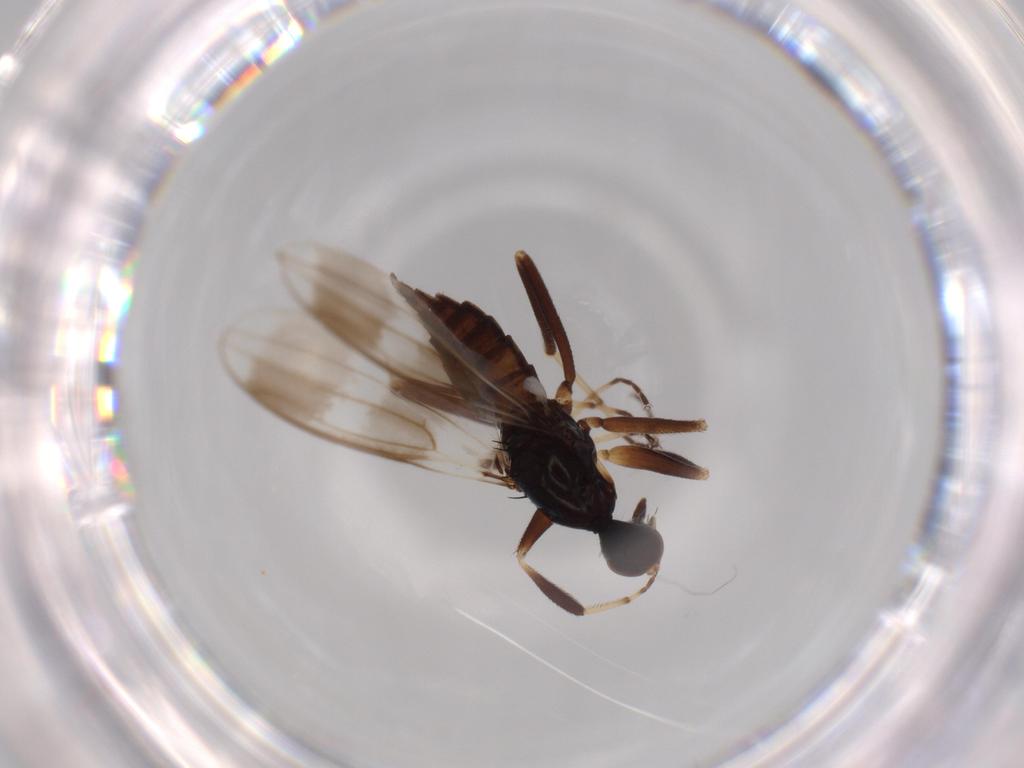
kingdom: Animalia
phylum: Arthropoda
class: Insecta
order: Diptera
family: Hybotidae
